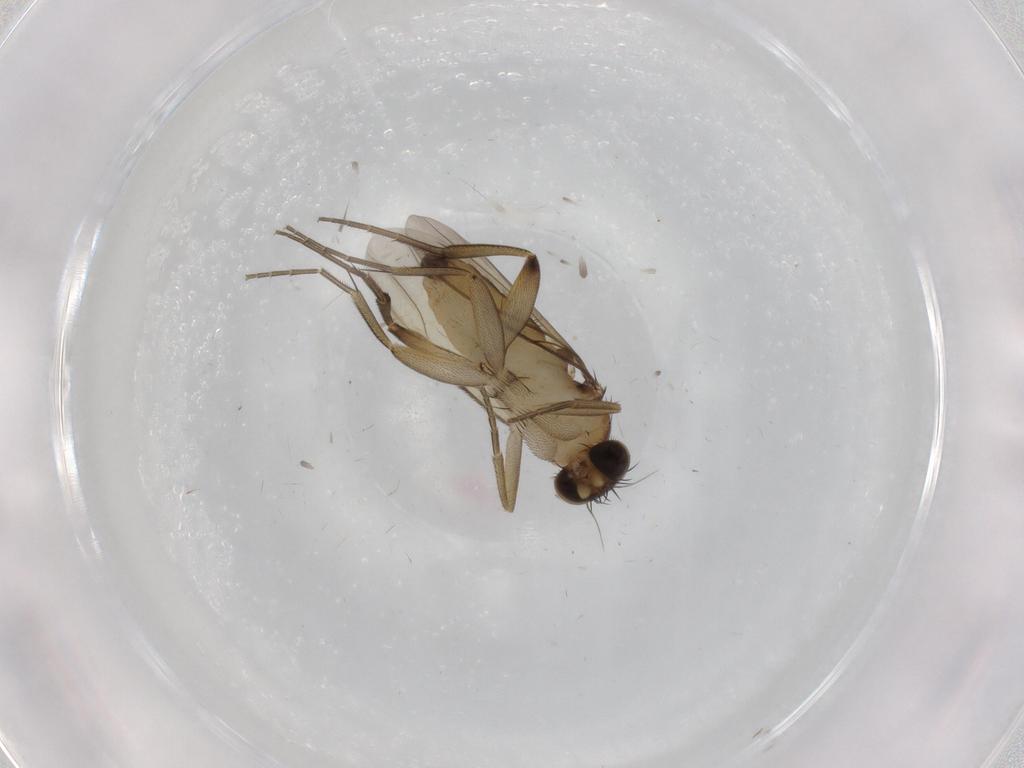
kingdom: Animalia
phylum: Arthropoda
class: Insecta
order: Diptera
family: Phoridae
